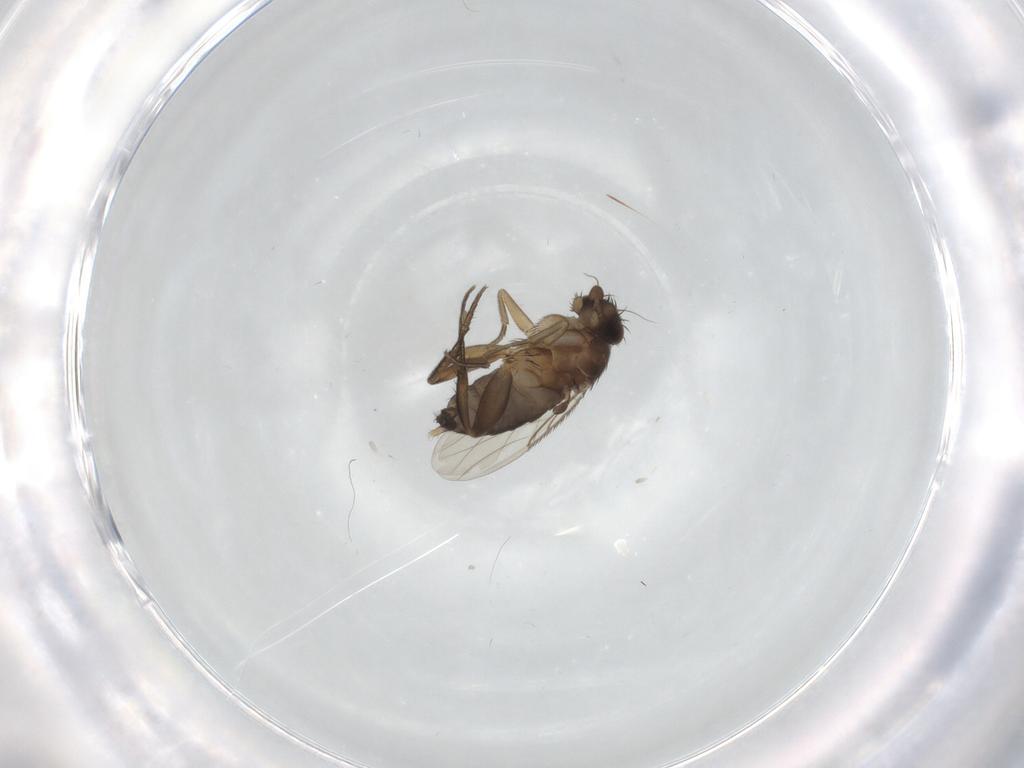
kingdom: Animalia
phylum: Arthropoda
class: Insecta
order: Diptera
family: Phoridae
